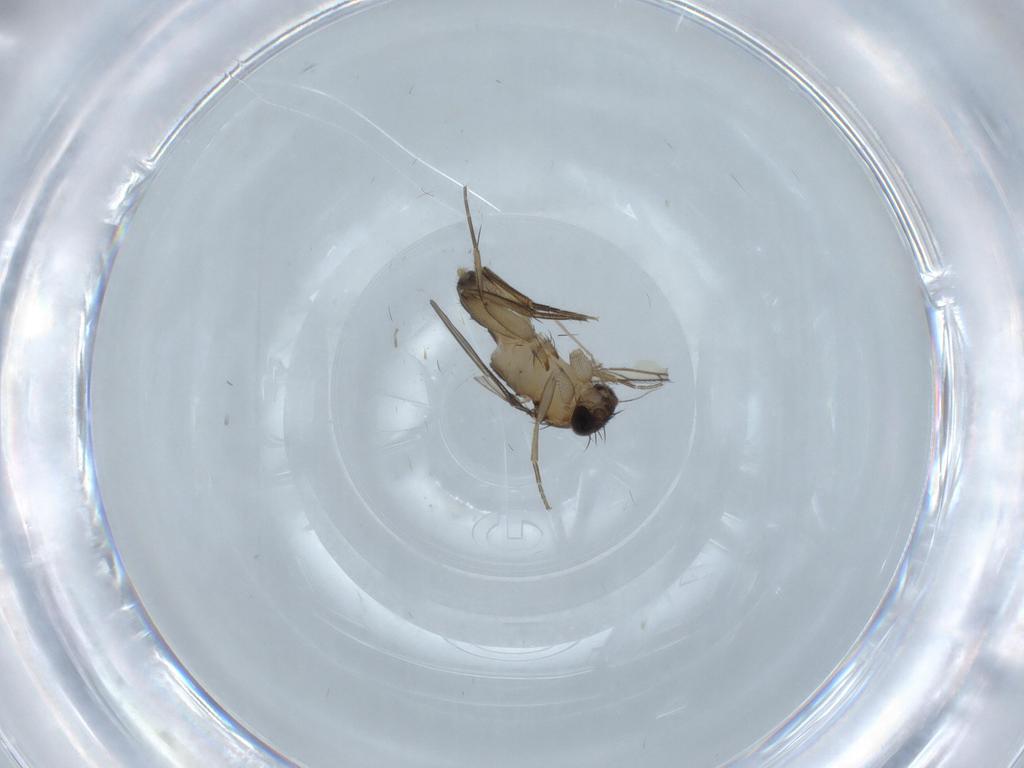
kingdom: Animalia
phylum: Arthropoda
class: Insecta
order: Diptera
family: Phoridae
